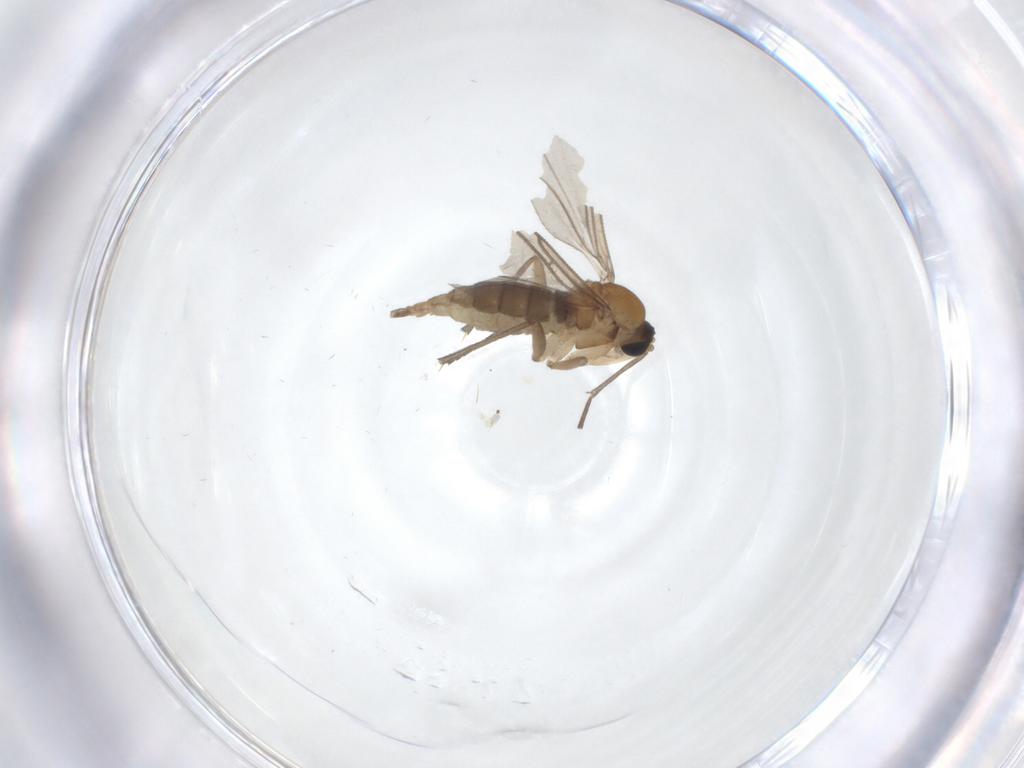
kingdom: Animalia
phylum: Arthropoda
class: Insecta
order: Diptera
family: Sciaridae
